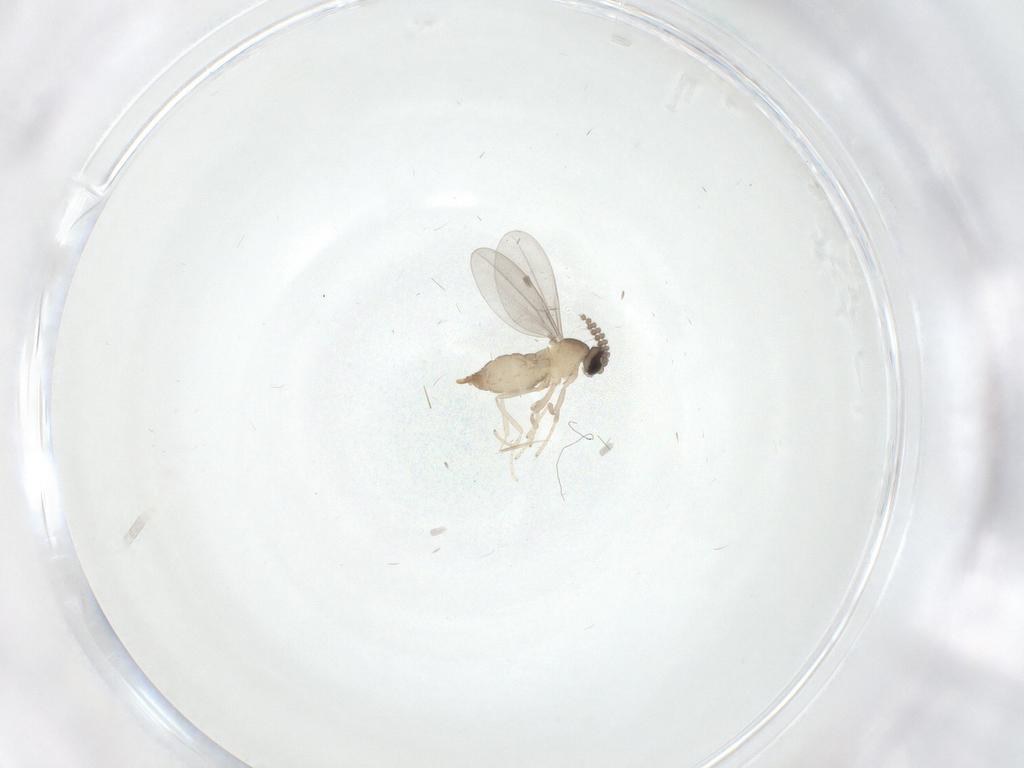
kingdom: Animalia
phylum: Arthropoda
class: Insecta
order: Diptera
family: Cecidomyiidae
